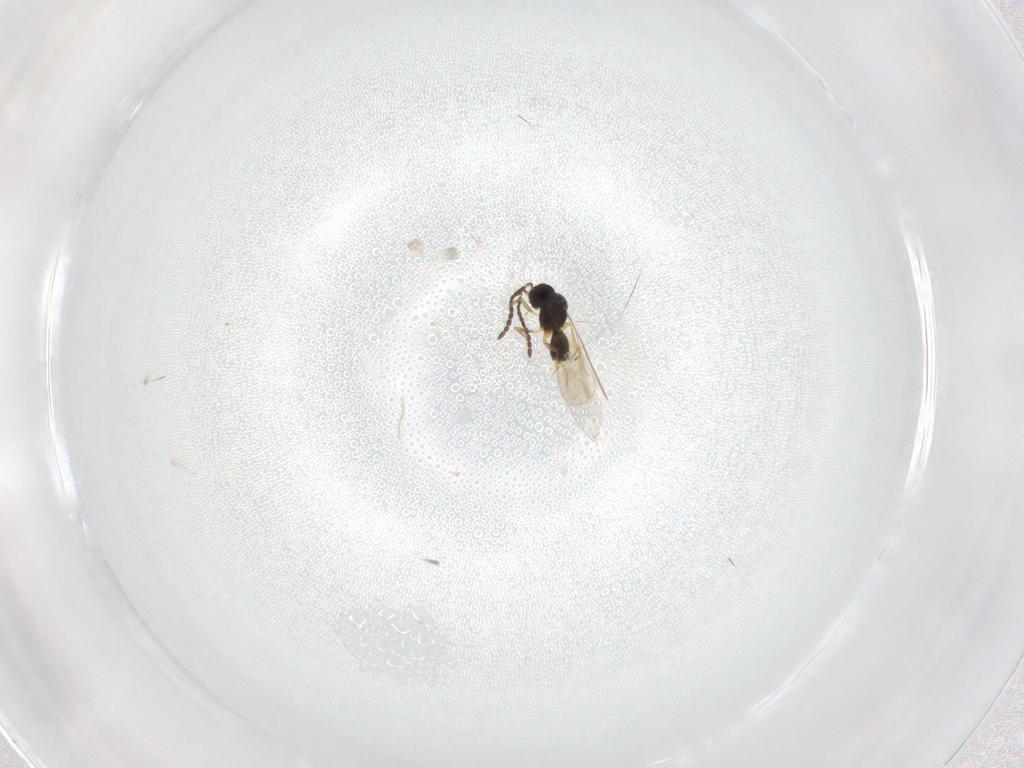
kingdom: Animalia
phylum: Arthropoda
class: Insecta
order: Hymenoptera
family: Ceraphronidae
